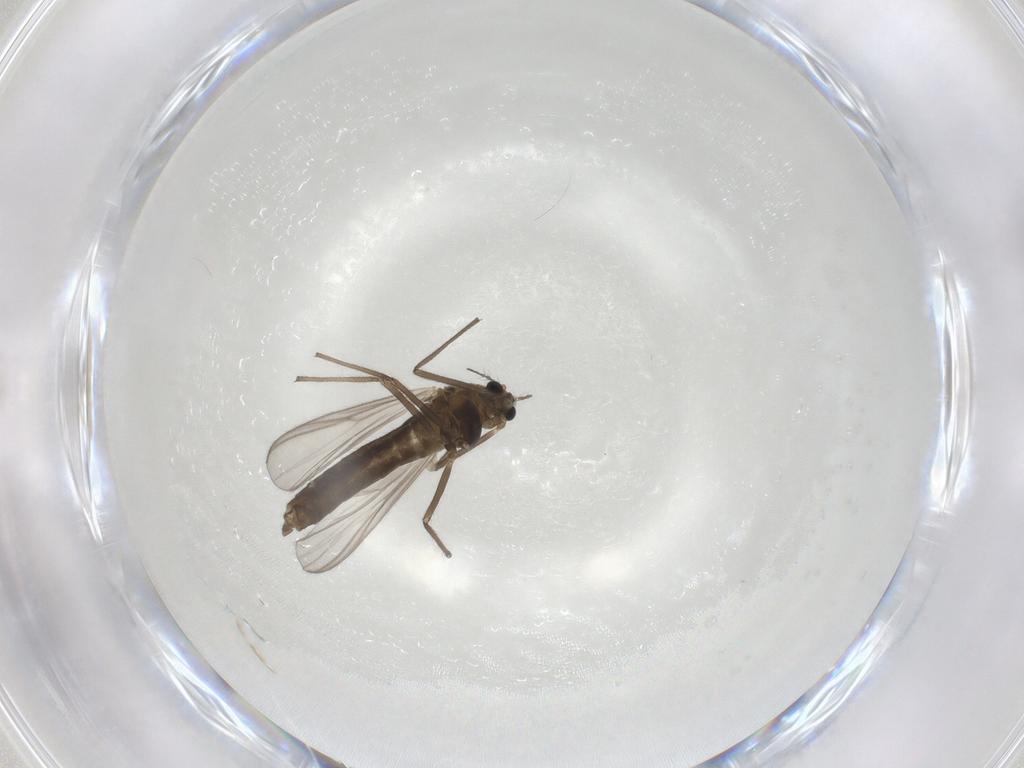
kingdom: Animalia
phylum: Arthropoda
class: Insecta
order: Diptera
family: Chironomidae
